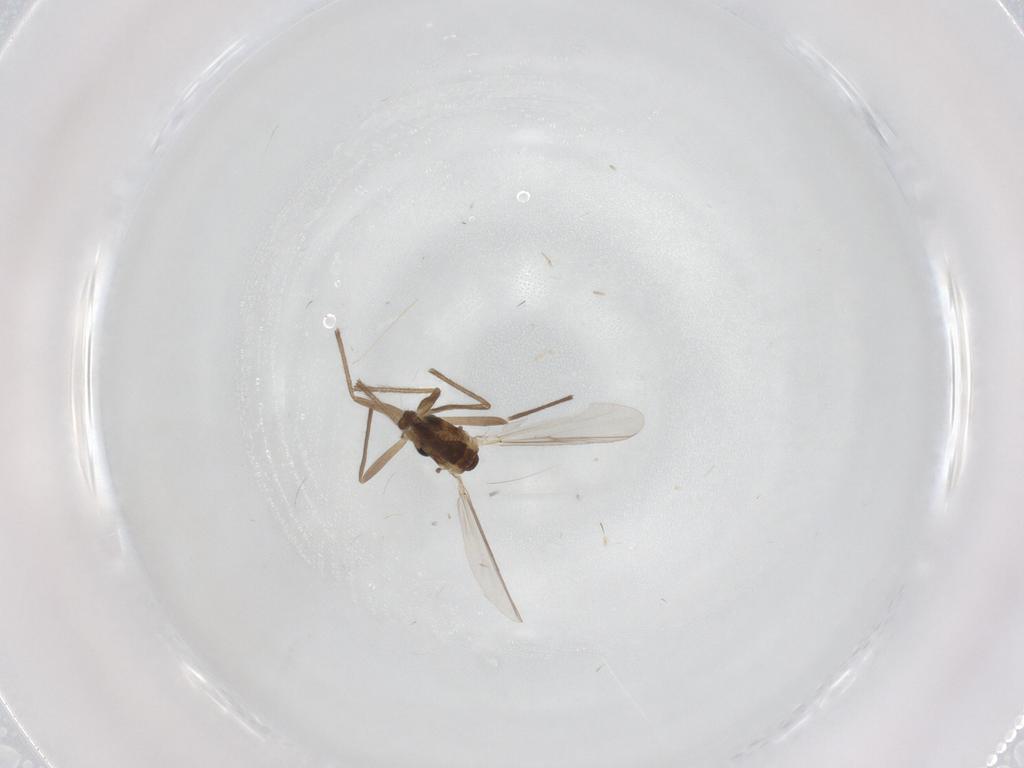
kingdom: Animalia
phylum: Arthropoda
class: Insecta
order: Diptera
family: Chironomidae
